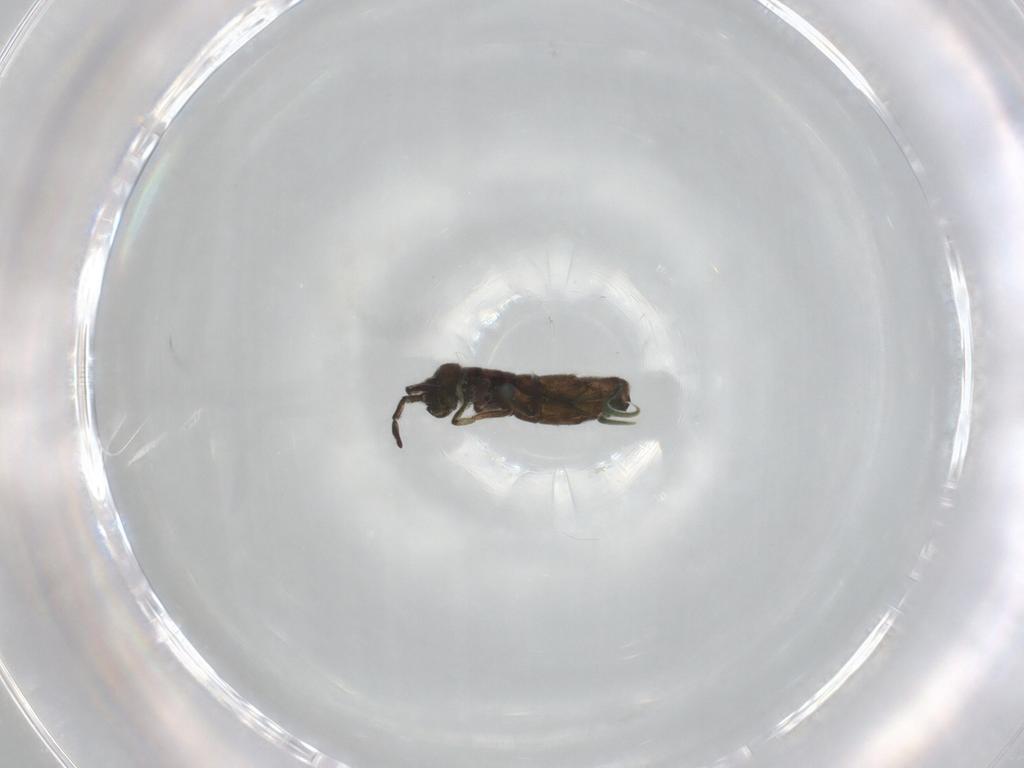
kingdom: Animalia
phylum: Arthropoda
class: Collembola
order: Entomobryomorpha
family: Isotomidae
